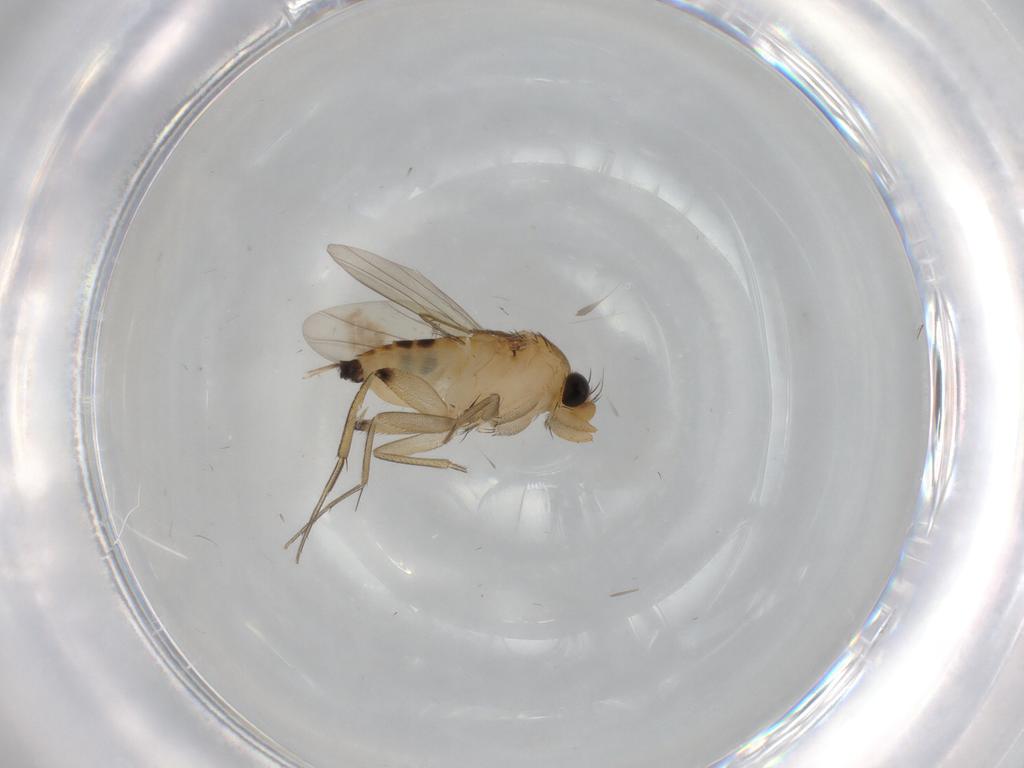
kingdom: Animalia
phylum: Arthropoda
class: Insecta
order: Diptera
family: Phoridae
